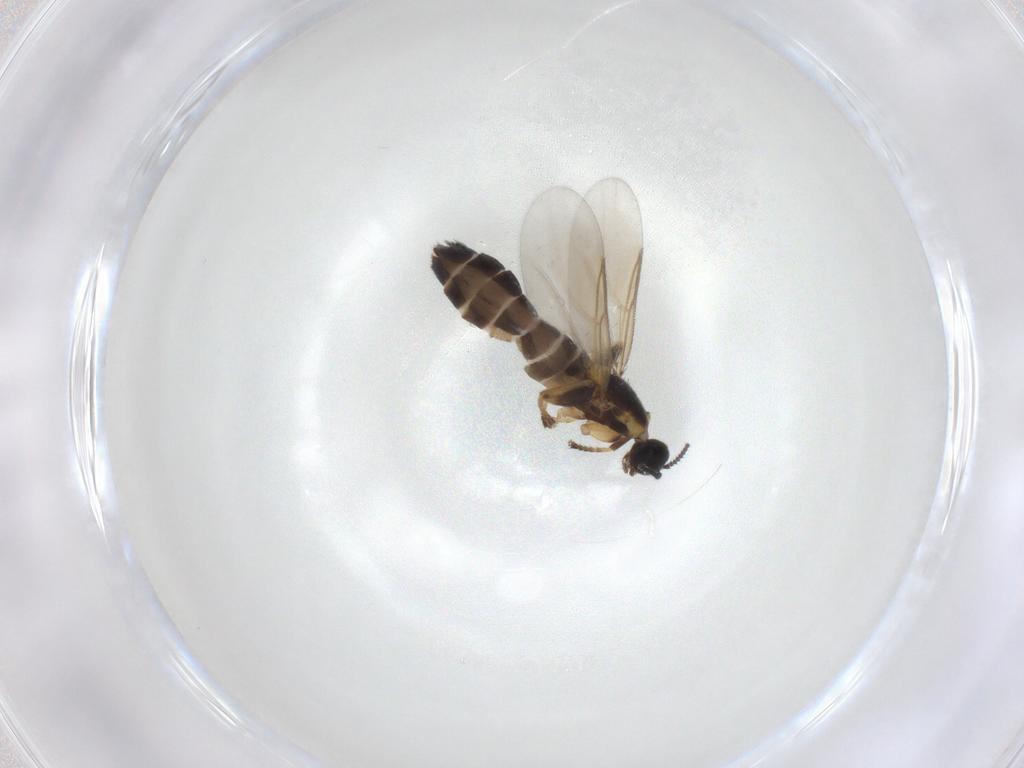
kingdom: Animalia
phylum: Arthropoda
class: Insecta
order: Diptera
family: Scatopsidae
